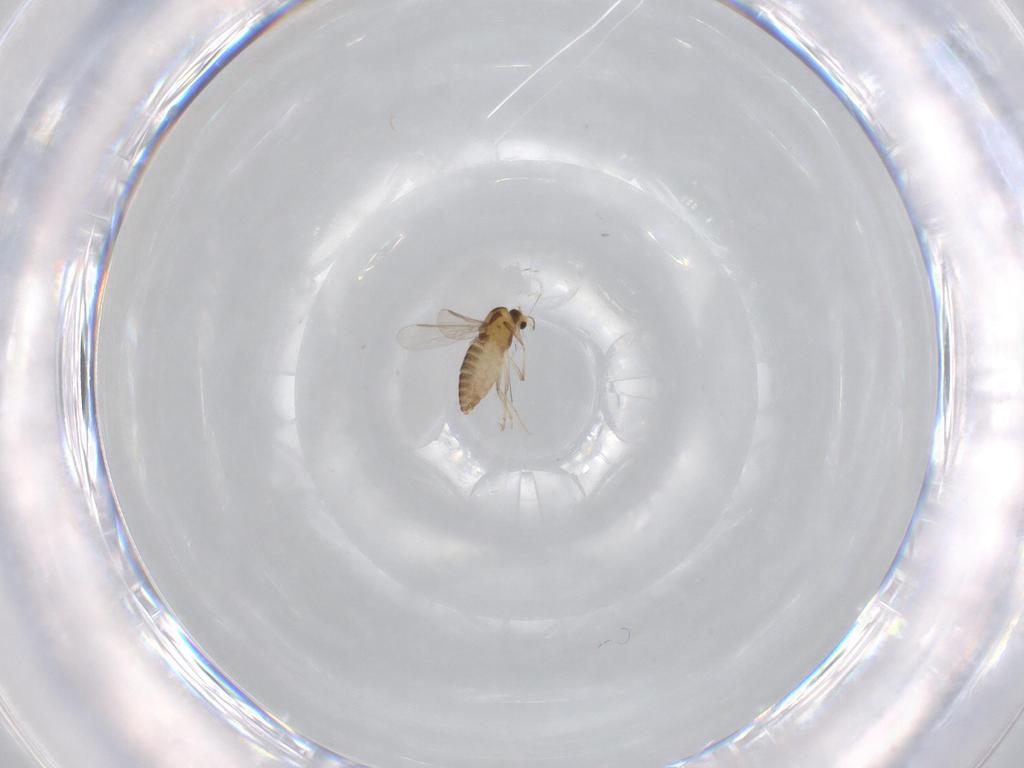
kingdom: Animalia
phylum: Arthropoda
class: Insecta
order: Diptera
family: Chironomidae
